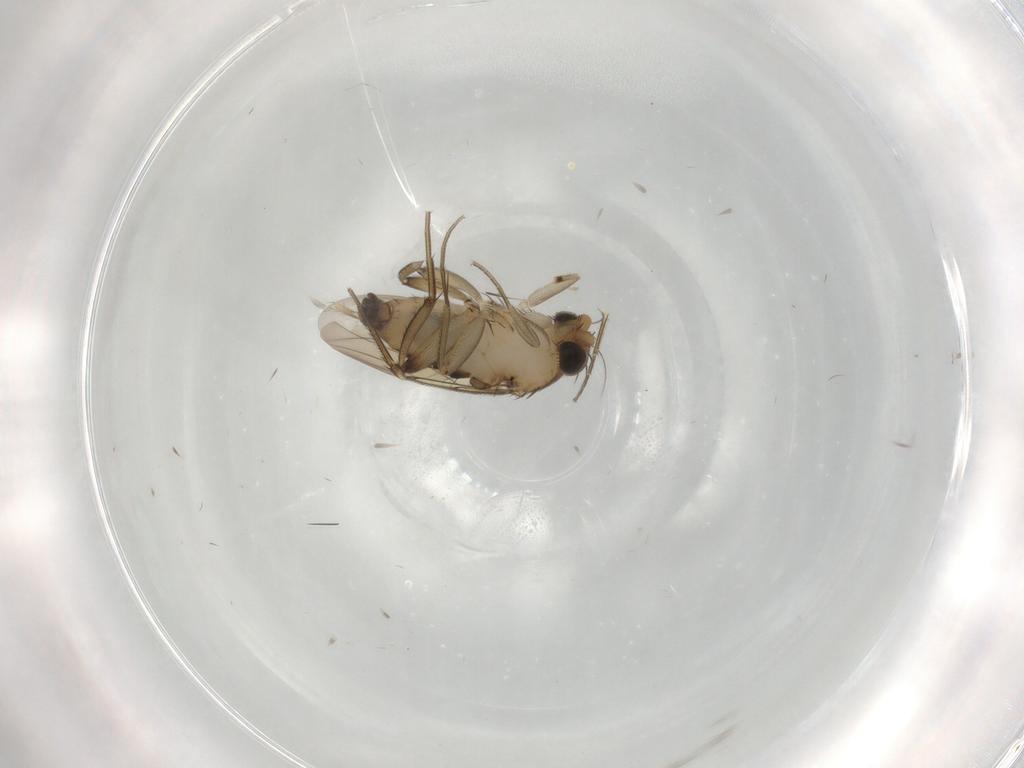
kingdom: Animalia
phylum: Arthropoda
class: Insecta
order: Diptera
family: Phoridae
